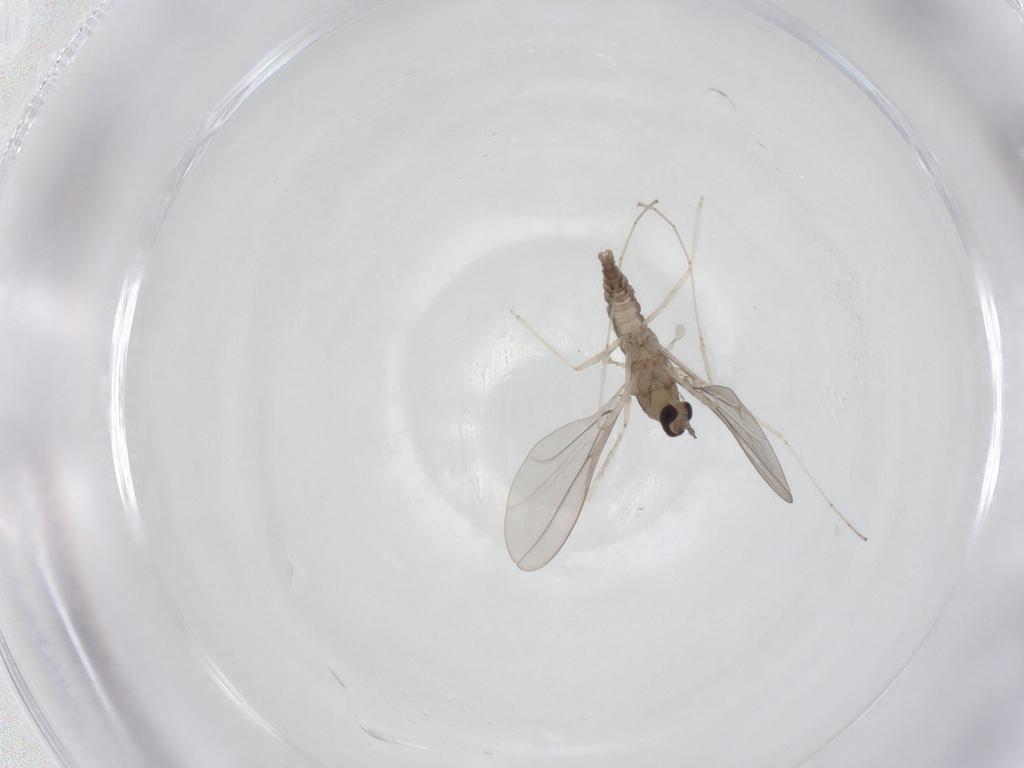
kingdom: Animalia
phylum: Arthropoda
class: Insecta
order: Diptera
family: Cecidomyiidae
